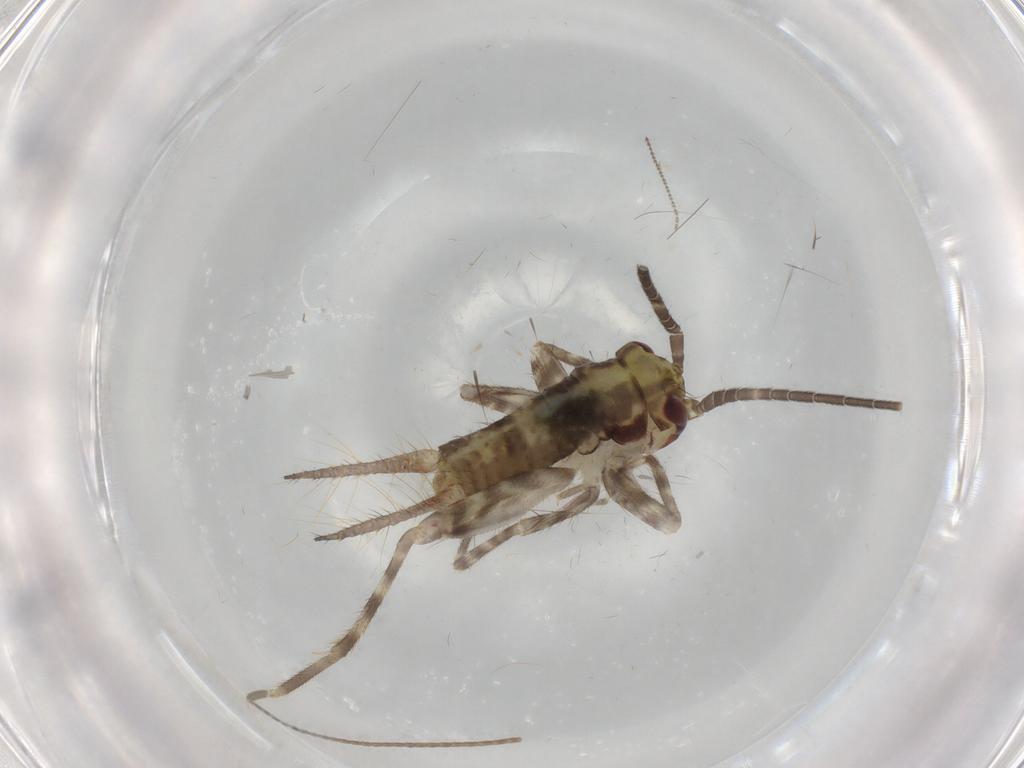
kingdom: Animalia
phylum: Arthropoda
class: Insecta
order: Orthoptera
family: Gryllidae
